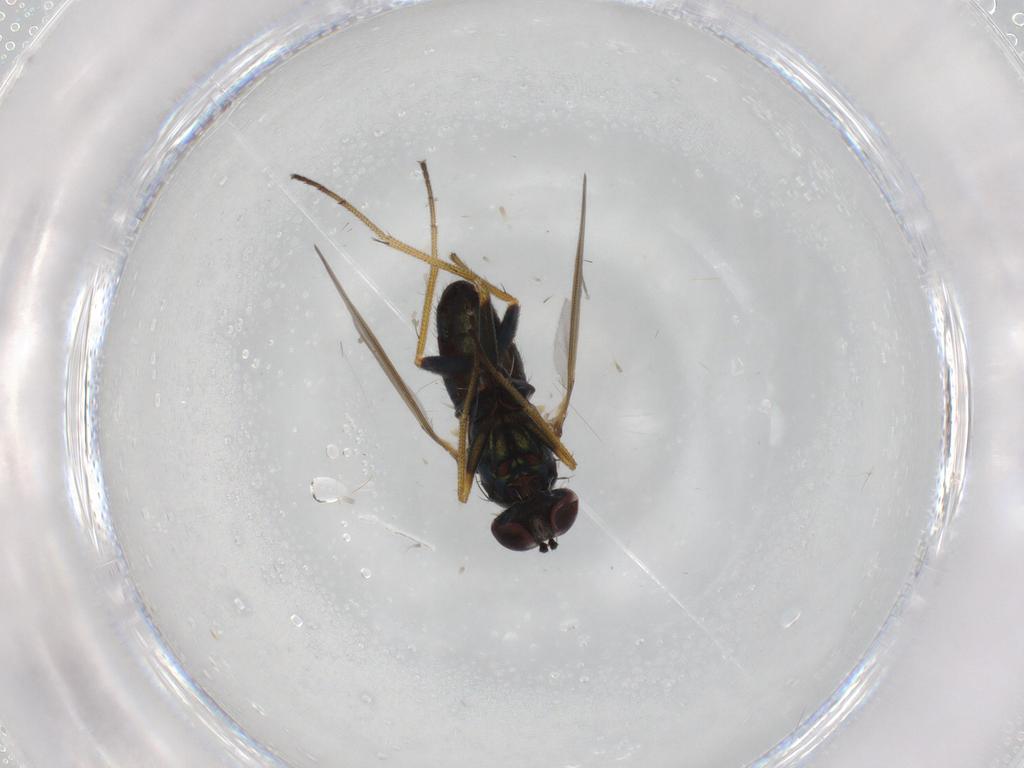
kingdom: Animalia
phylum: Arthropoda
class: Insecta
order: Diptera
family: Dolichopodidae
